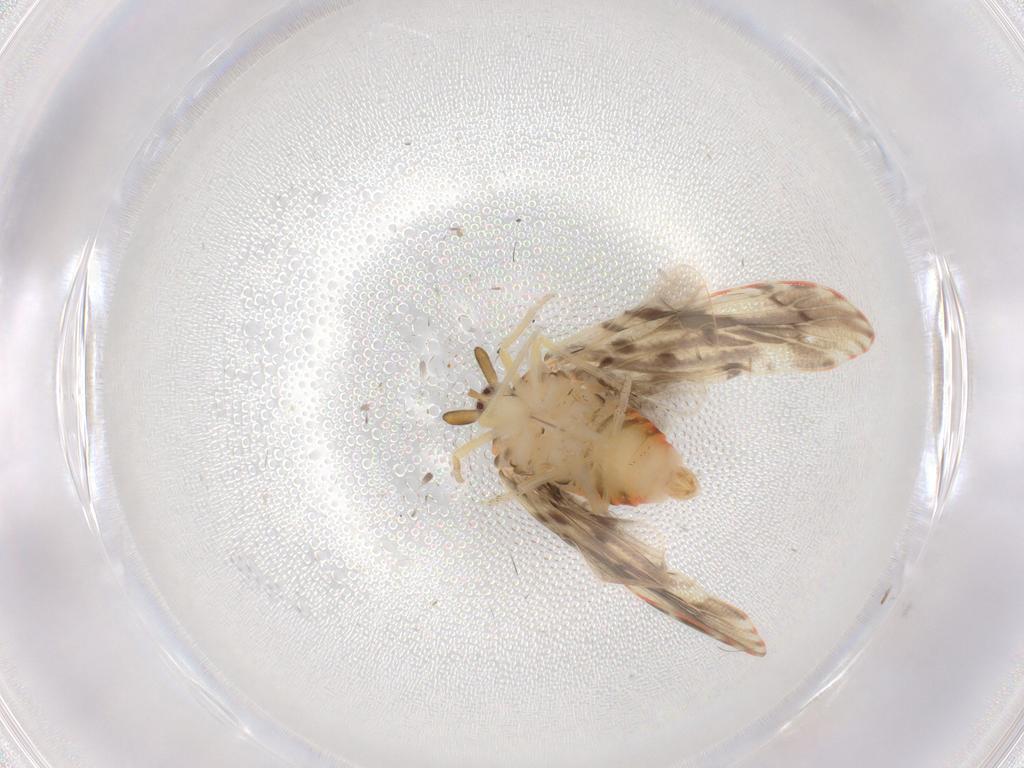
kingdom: Animalia
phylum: Arthropoda
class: Insecta
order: Hemiptera
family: Derbidae
